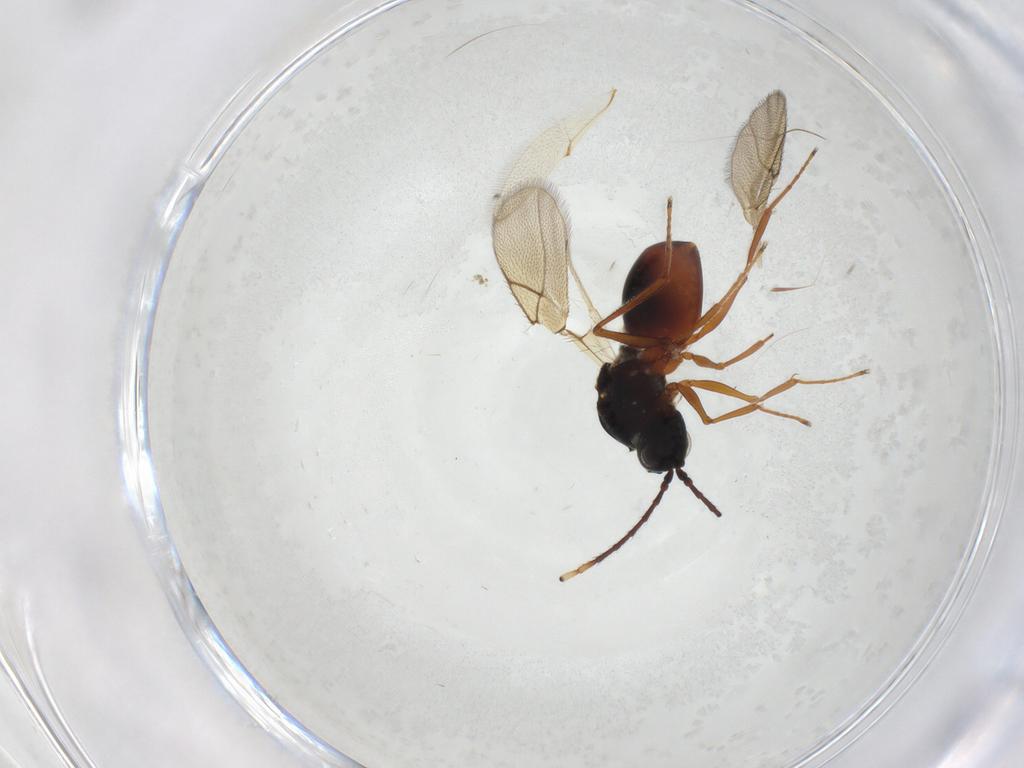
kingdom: Animalia
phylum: Arthropoda
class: Insecta
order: Hymenoptera
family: Figitidae
